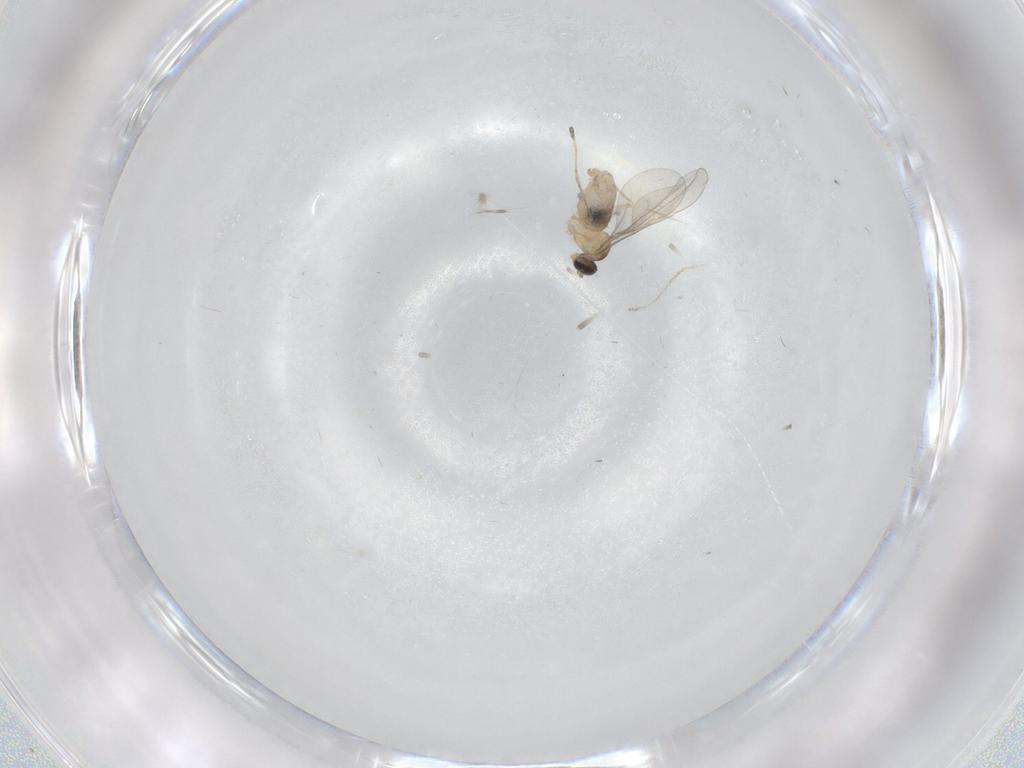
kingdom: Animalia
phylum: Arthropoda
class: Insecta
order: Diptera
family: Cecidomyiidae
